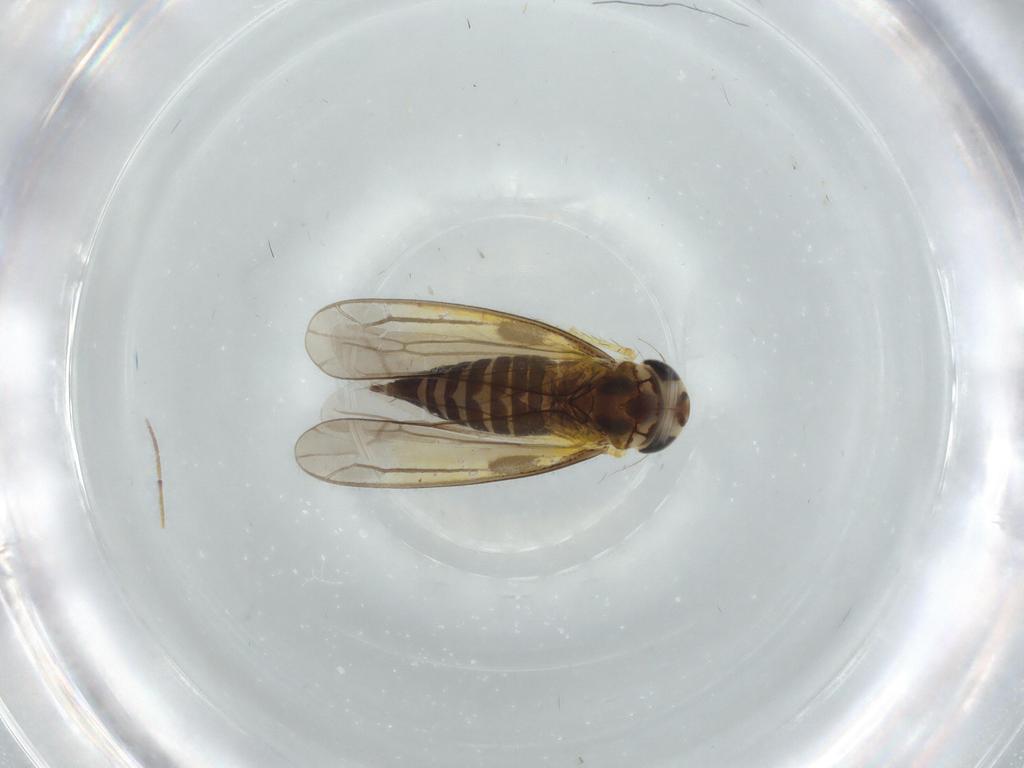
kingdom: Animalia
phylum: Arthropoda
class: Insecta
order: Hemiptera
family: Cicadellidae
